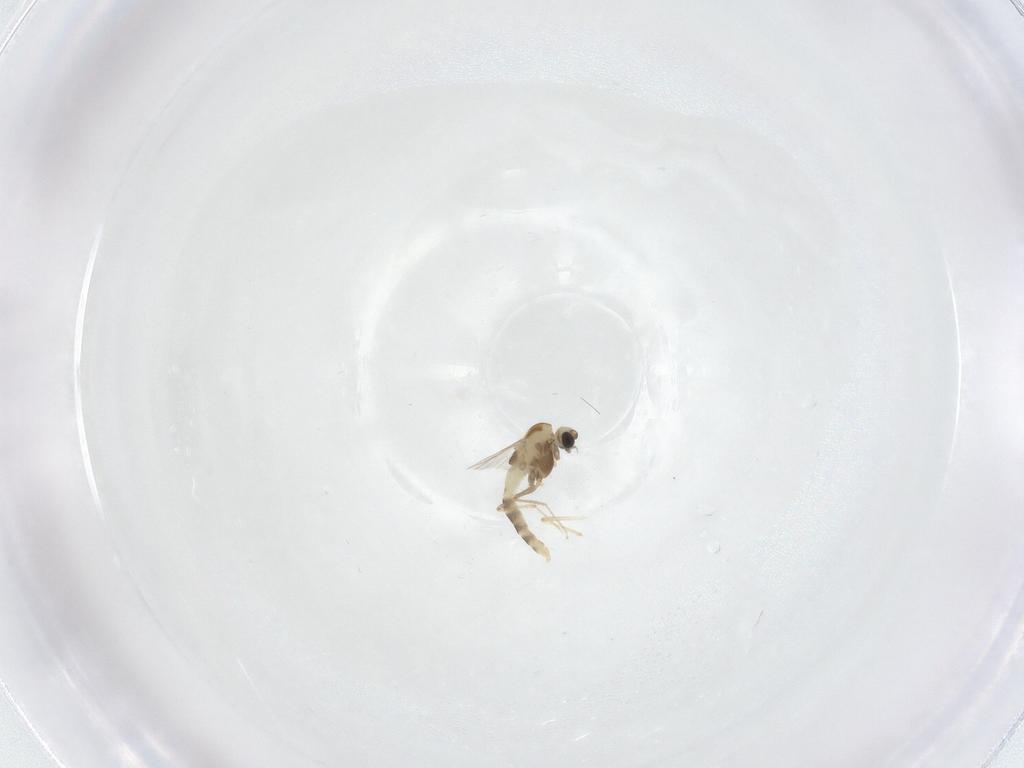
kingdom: Animalia
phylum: Arthropoda
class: Insecta
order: Diptera
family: Chironomidae
